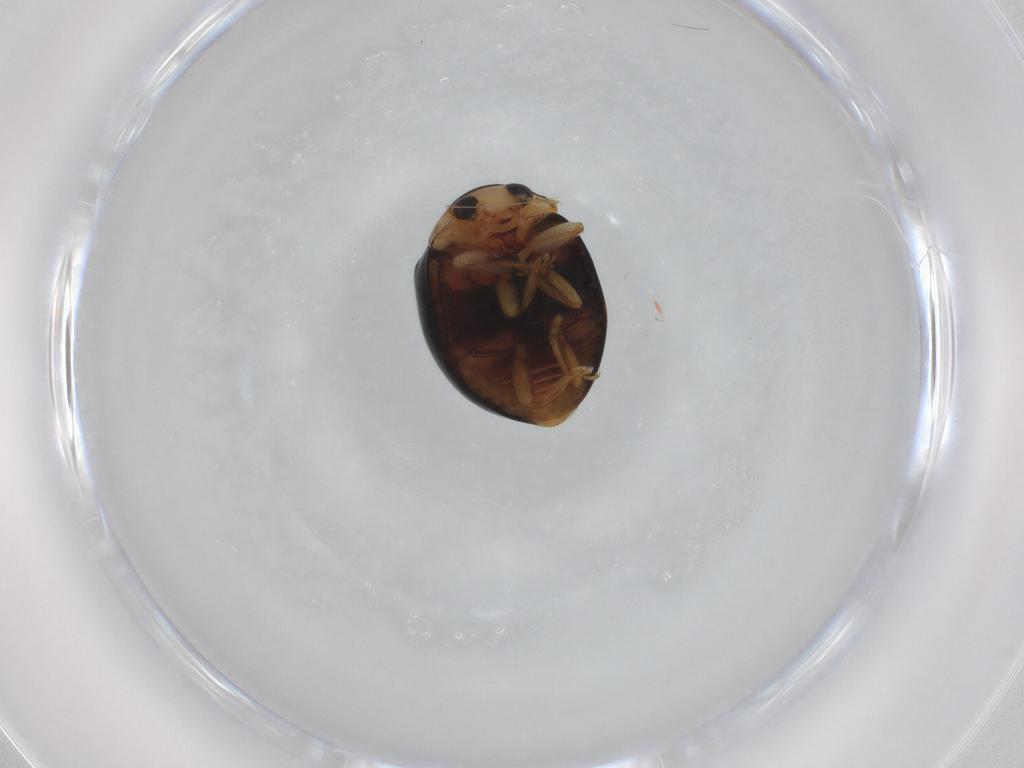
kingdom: Animalia
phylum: Arthropoda
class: Insecta
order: Coleoptera
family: Coccinellidae
